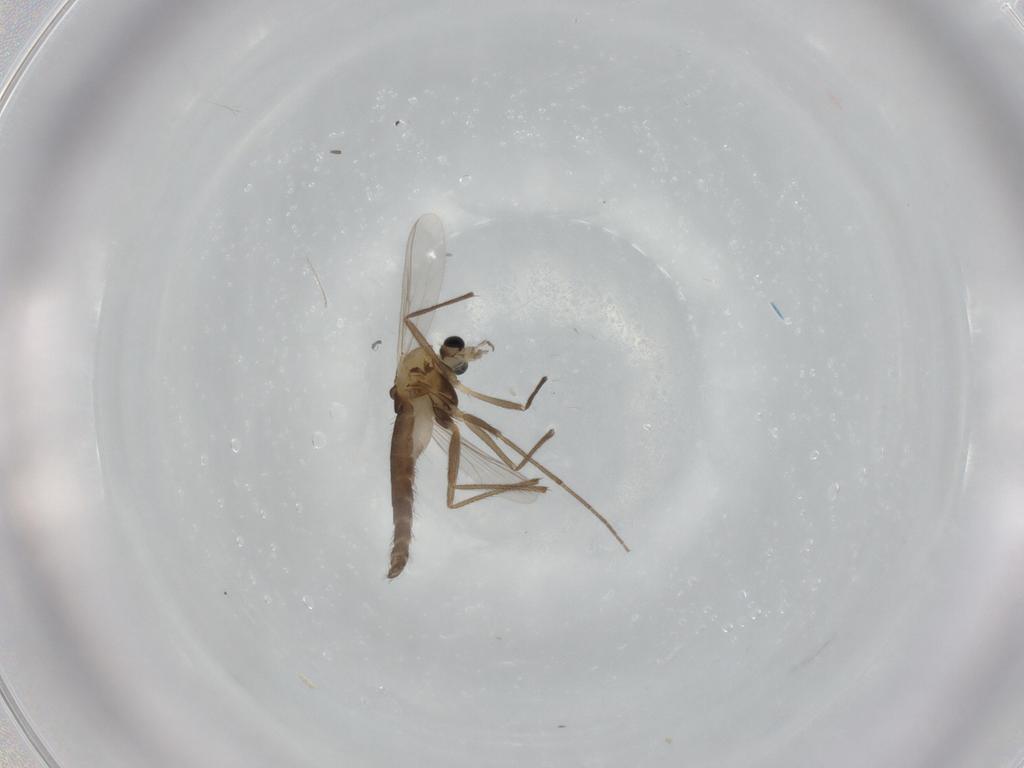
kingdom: Animalia
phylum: Arthropoda
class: Insecta
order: Diptera
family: Chironomidae
